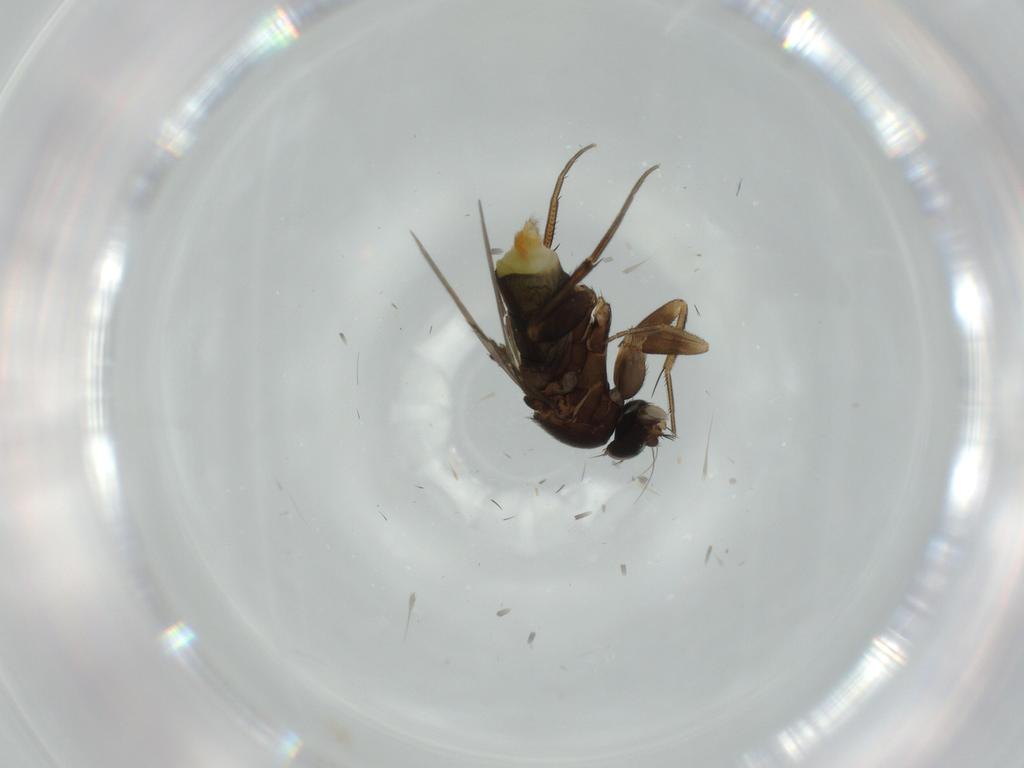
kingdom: Animalia
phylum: Arthropoda
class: Insecta
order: Diptera
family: Phoridae
